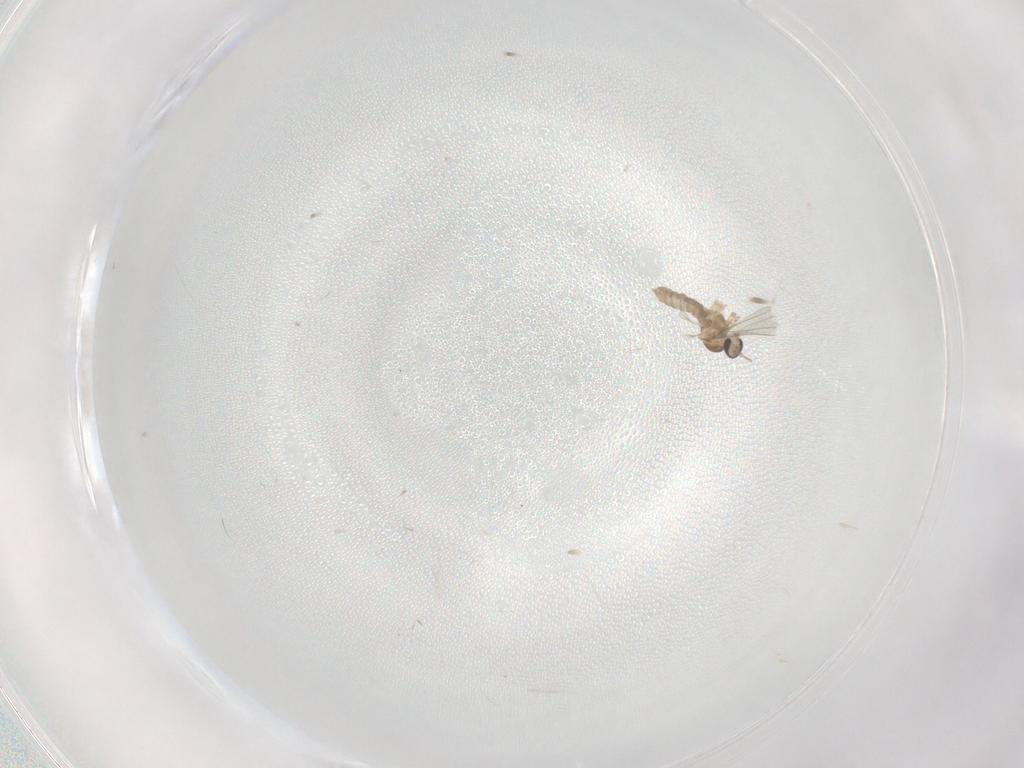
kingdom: Animalia
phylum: Arthropoda
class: Insecta
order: Diptera
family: Cecidomyiidae
